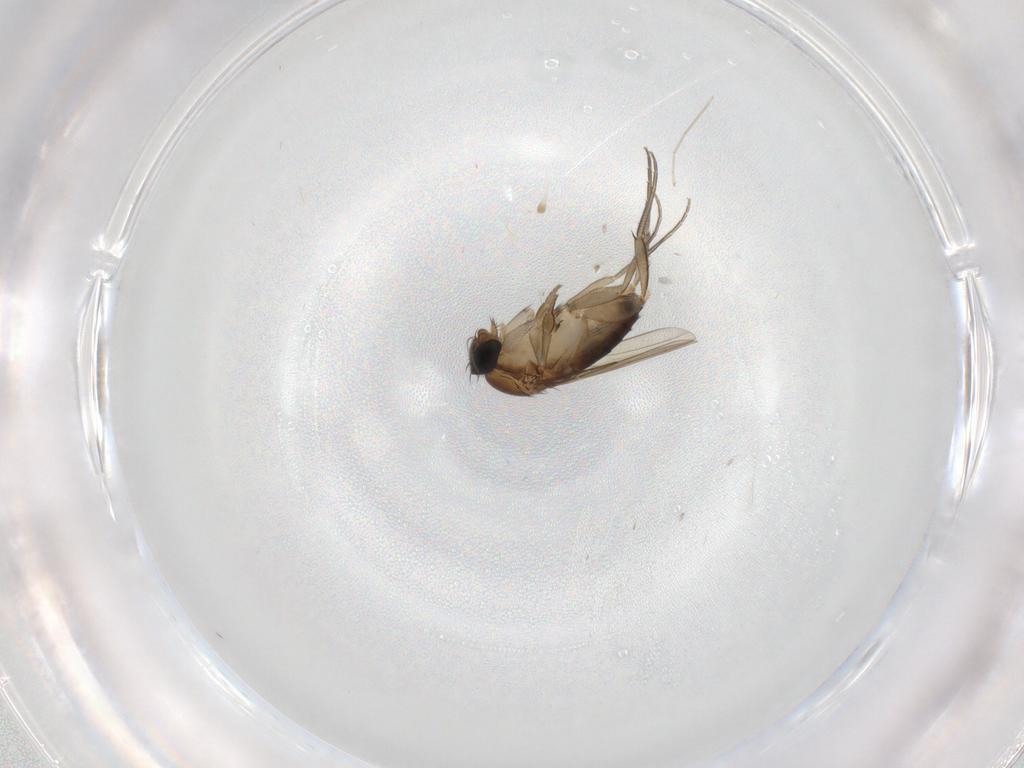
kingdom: Animalia
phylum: Arthropoda
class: Insecta
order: Diptera
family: Phoridae
